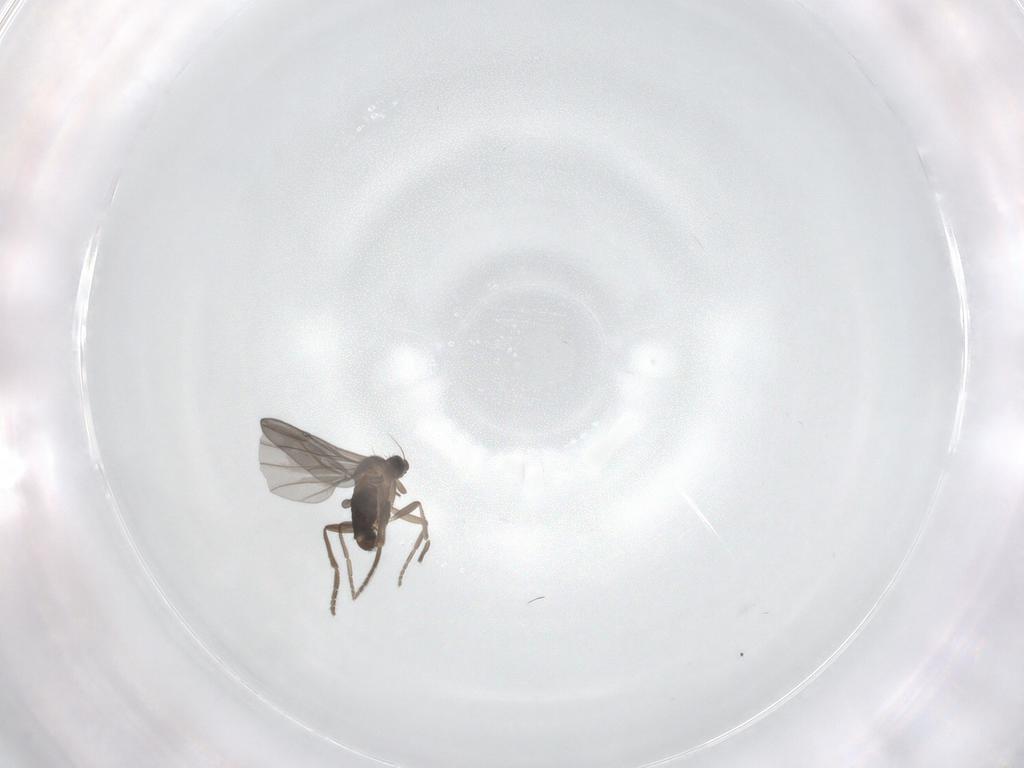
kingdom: Animalia
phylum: Arthropoda
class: Insecta
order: Diptera
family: Phoridae
